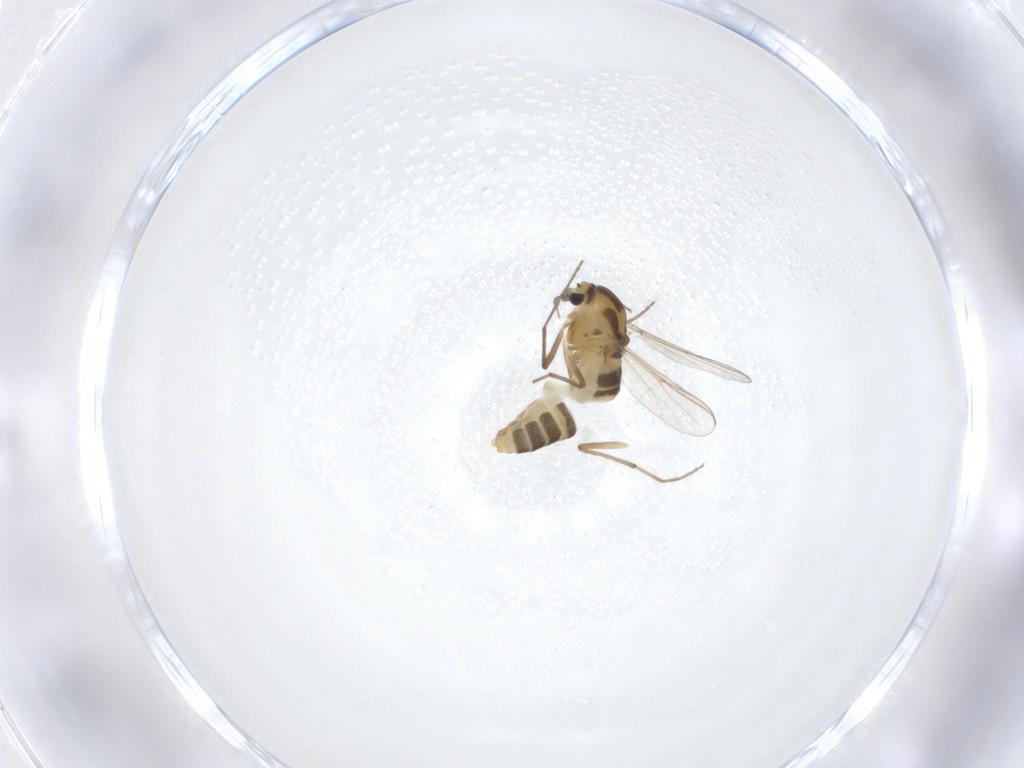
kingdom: Animalia
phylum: Arthropoda
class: Insecta
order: Diptera
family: Chironomidae
